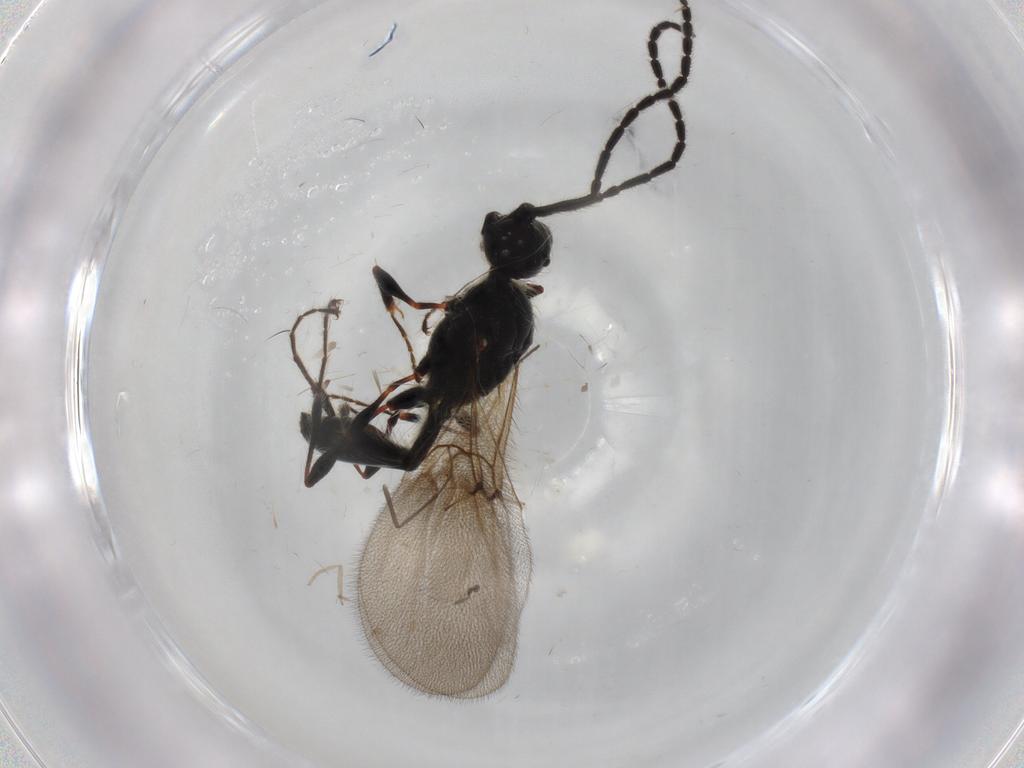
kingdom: Animalia
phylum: Arthropoda
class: Insecta
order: Hymenoptera
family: Diapriidae
